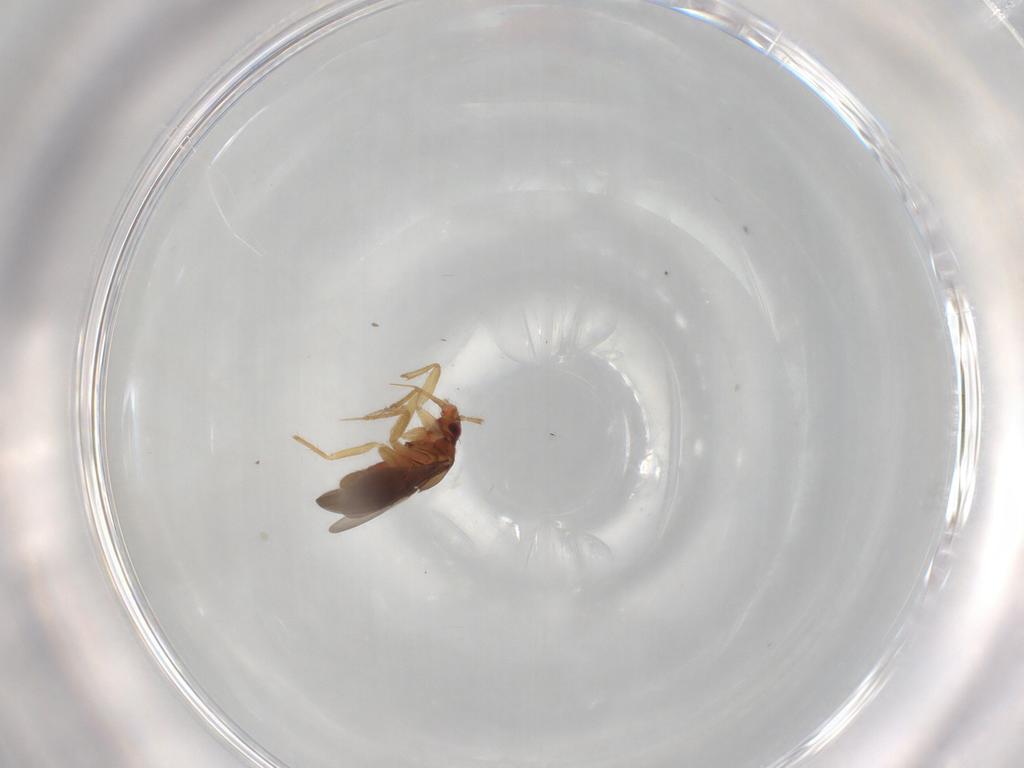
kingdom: Animalia
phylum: Arthropoda
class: Insecta
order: Hemiptera
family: Ceratocombidae
